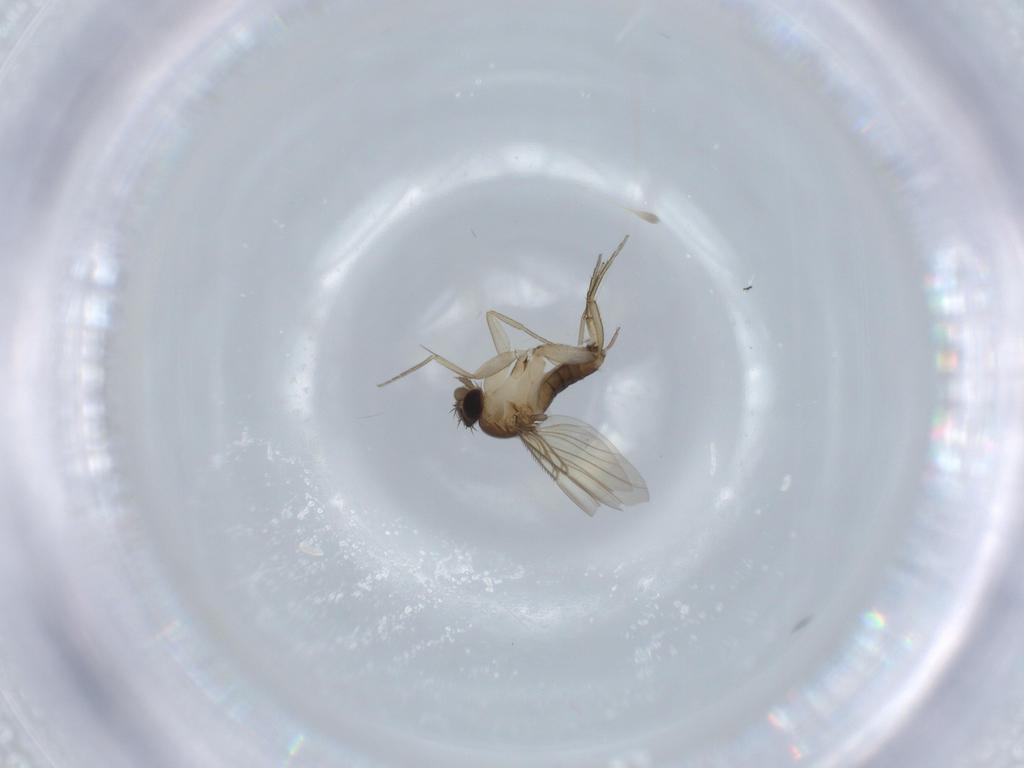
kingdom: Animalia
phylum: Arthropoda
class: Insecta
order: Diptera
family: Phoridae
